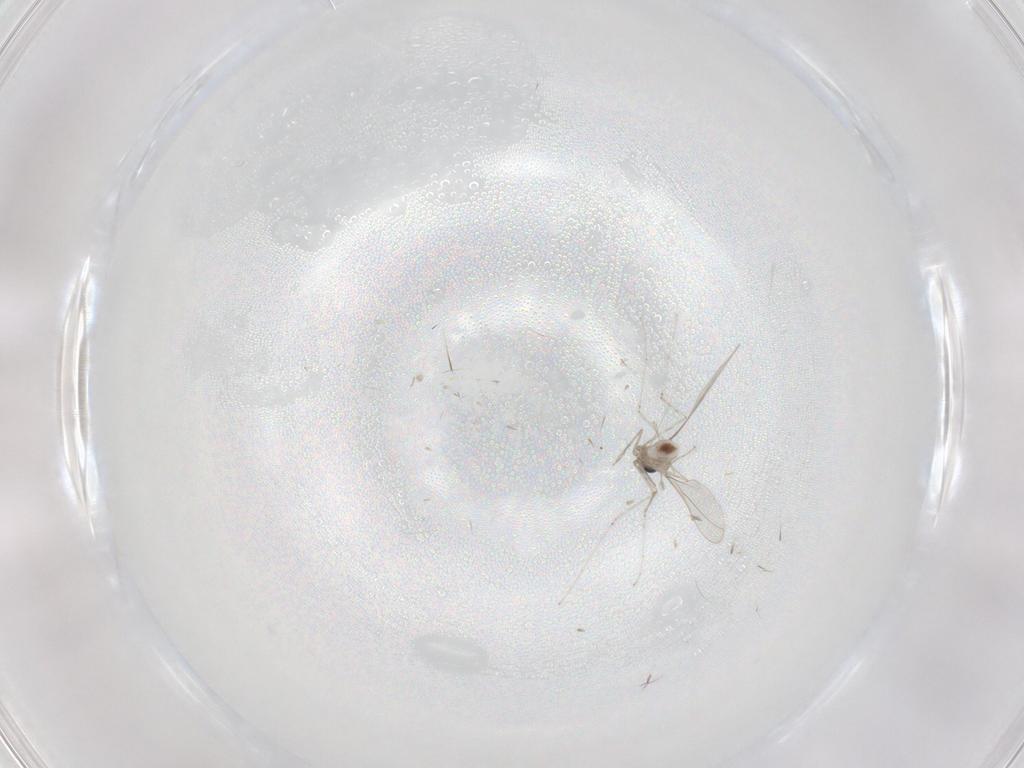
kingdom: Animalia
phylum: Arthropoda
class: Insecta
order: Diptera
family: Cecidomyiidae
